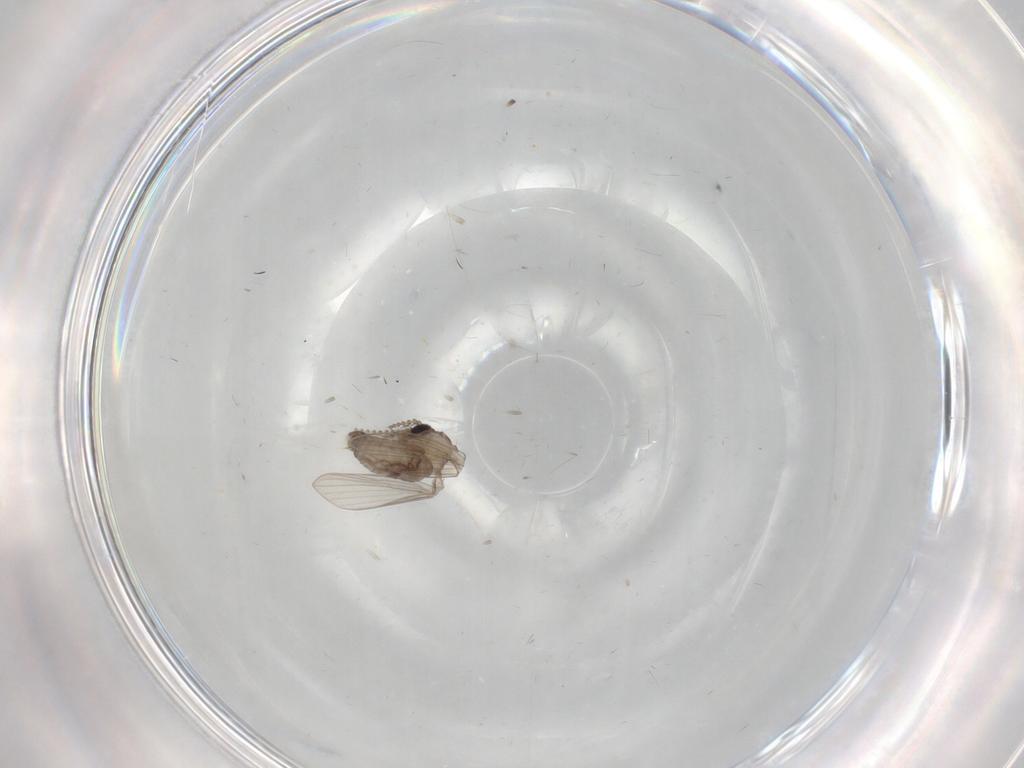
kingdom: Animalia
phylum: Arthropoda
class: Insecta
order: Diptera
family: Psychodidae
